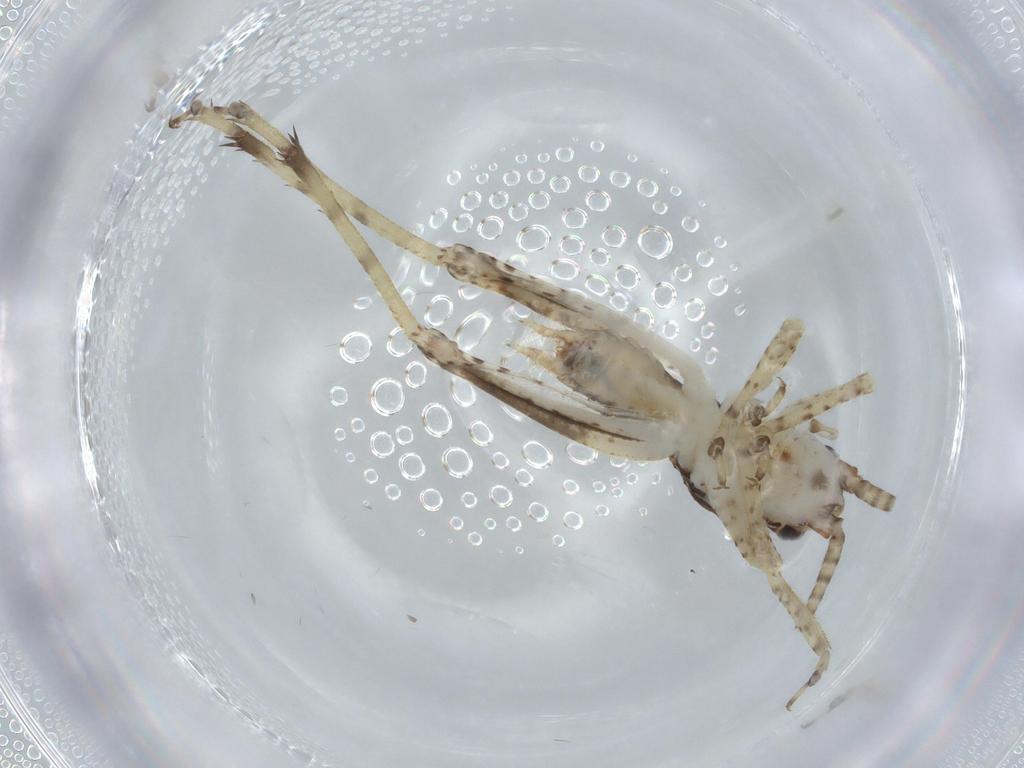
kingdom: Animalia
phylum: Arthropoda
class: Insecta
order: Orthoptera
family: Gryllidae
